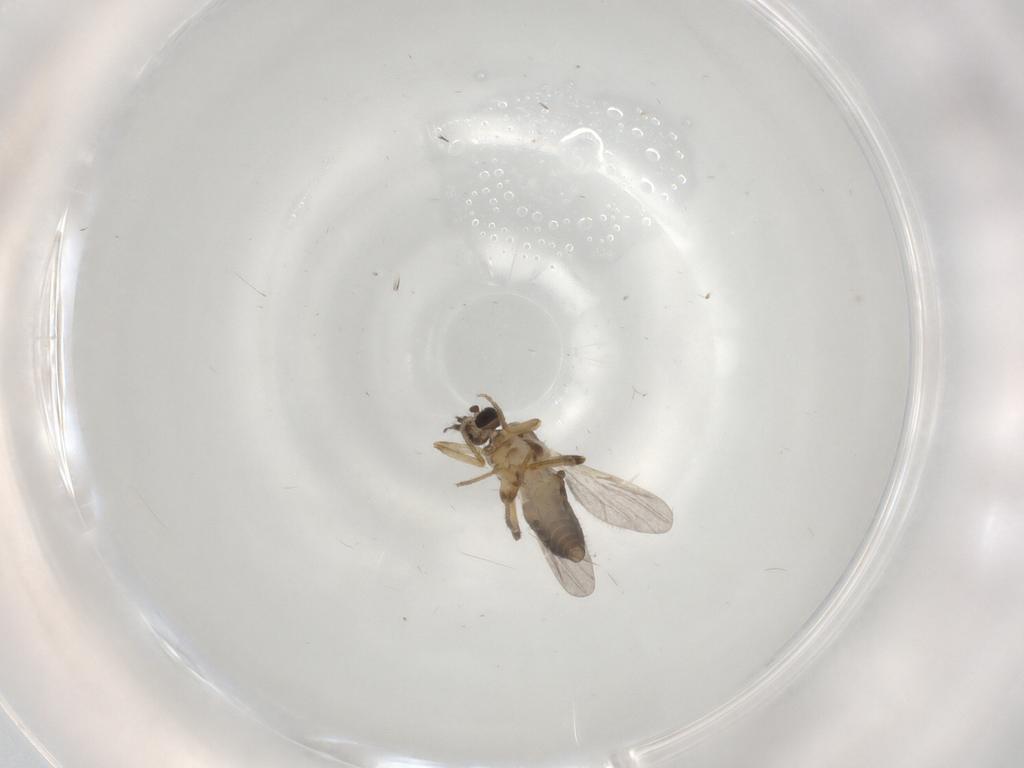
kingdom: Animalia
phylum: Arthropoda
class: Insecta
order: Diptera
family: Ceratopogonidae
